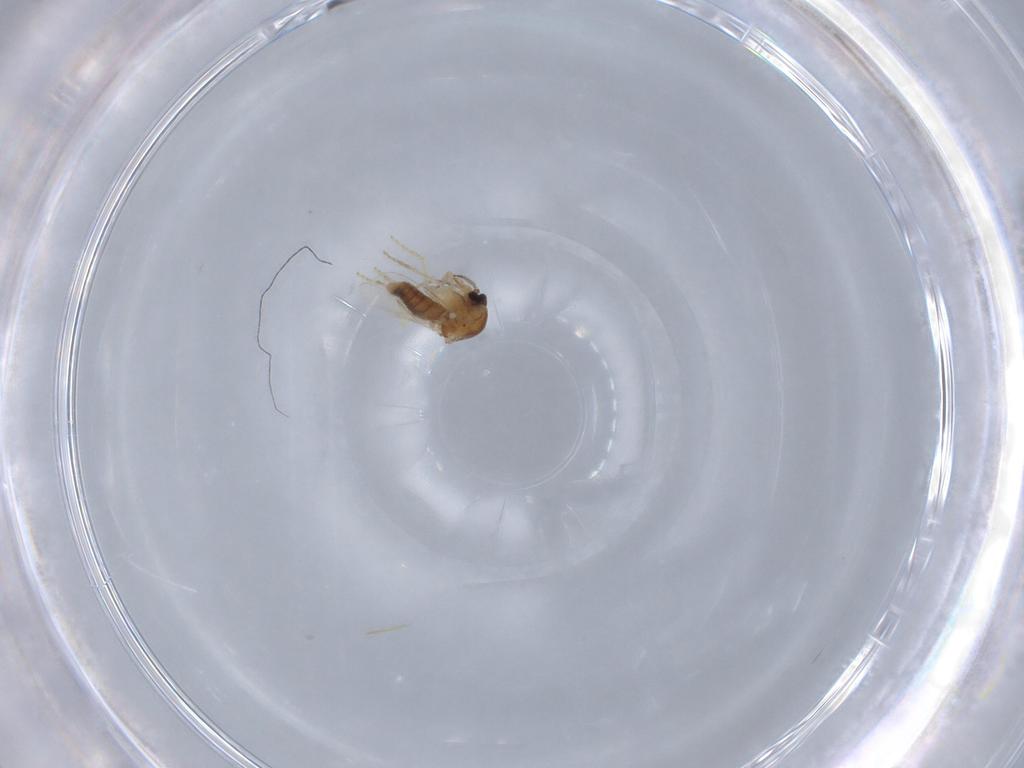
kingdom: Animalia
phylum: Arthropoda
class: Insecta
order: Diptera
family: Ceratopogonidae
